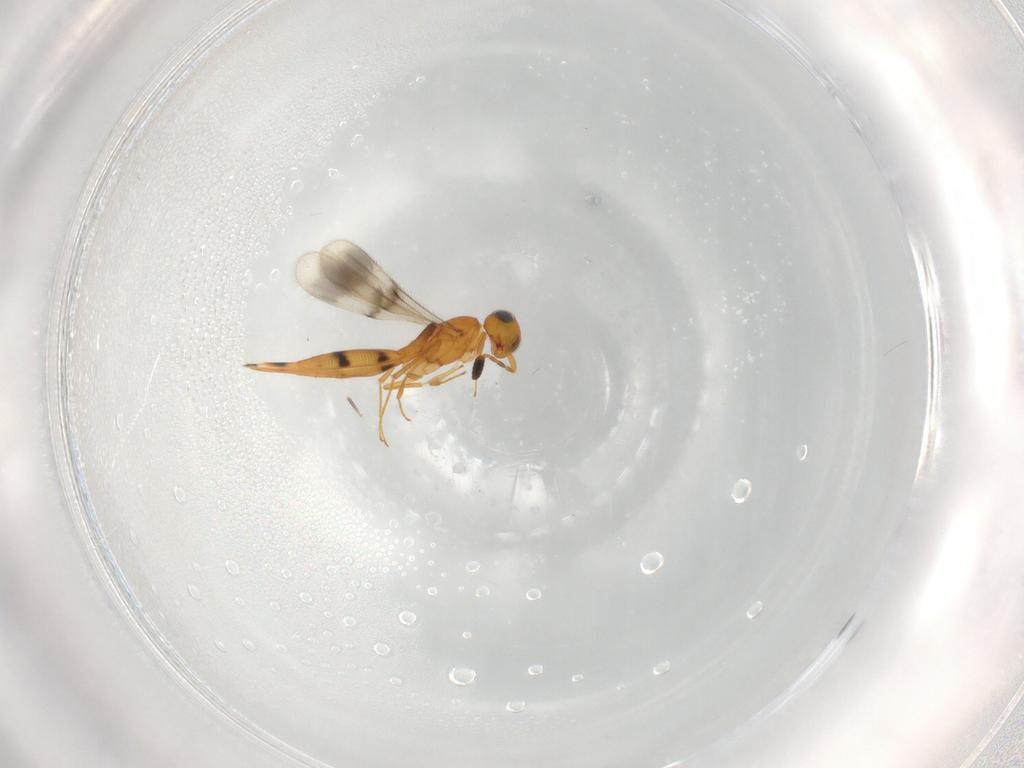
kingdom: Animalia
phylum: Arthropoda
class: Insecta
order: Hymenoptera
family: Scelionidae
